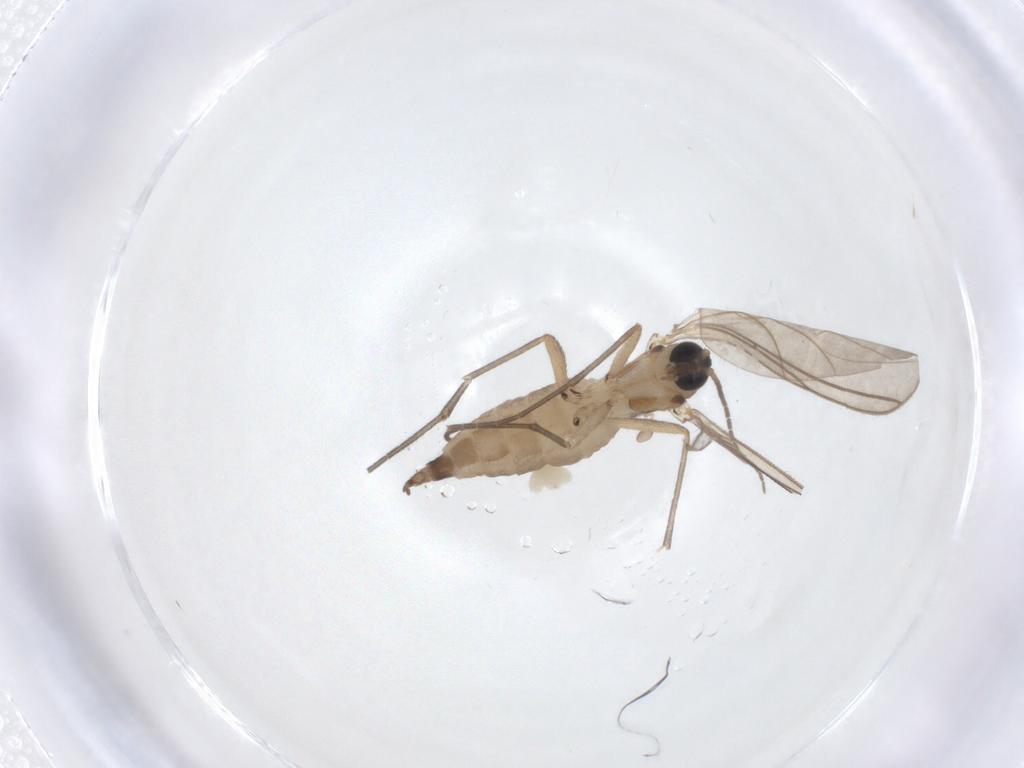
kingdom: Animalia
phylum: Arthropoda
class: Insecta
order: Diptera
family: Sciaridae
